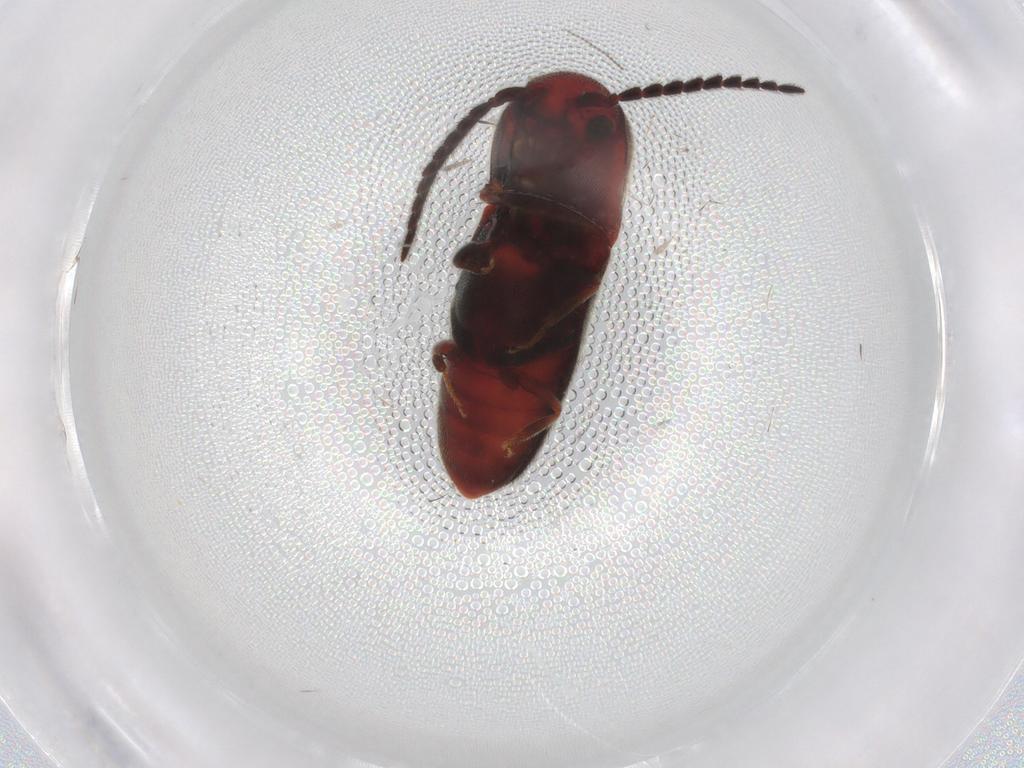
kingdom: Animalia
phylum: Arthropoda
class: Insecta
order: Coleoptera
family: Eucnemidae
